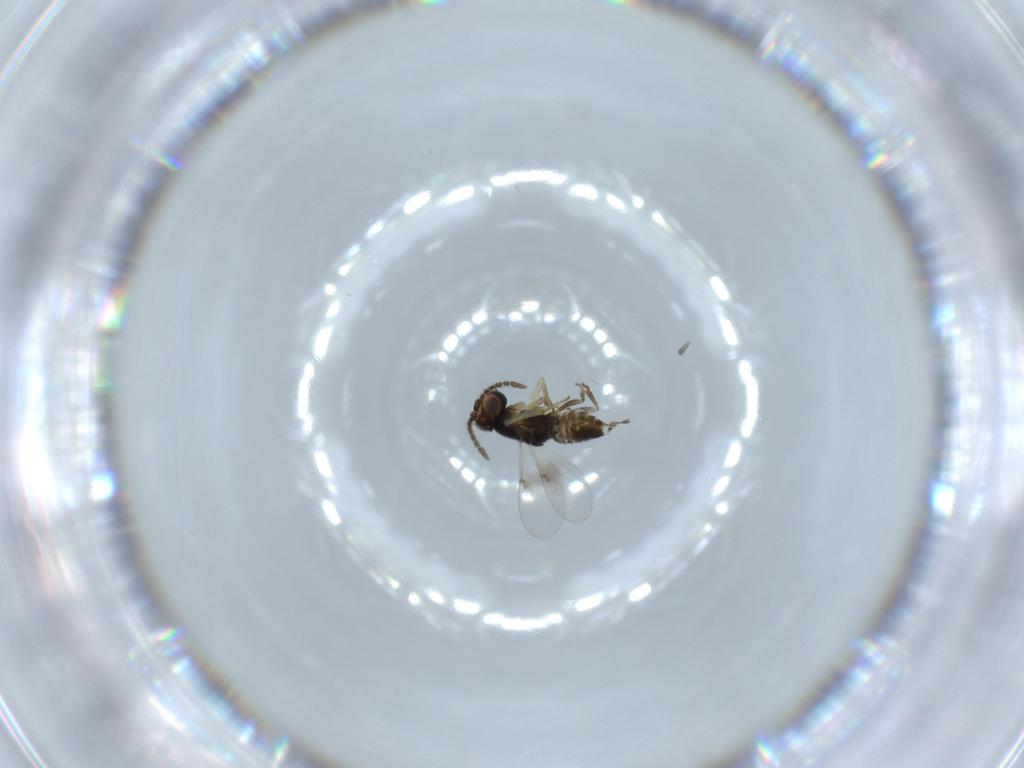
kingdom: Animalia
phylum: Arthropoda
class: Insecta
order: Hymenoptera
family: Encyrtidae
